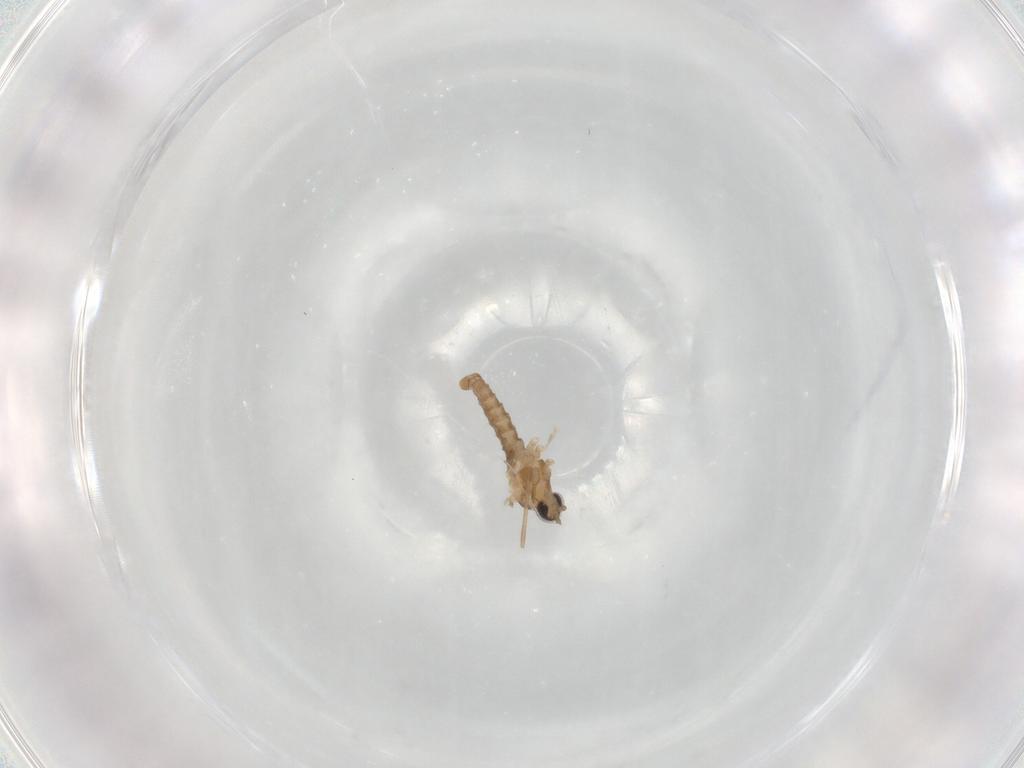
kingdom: Animalia
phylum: Arthropoda
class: Insecta
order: Diptera
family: Cecidomyiidae
